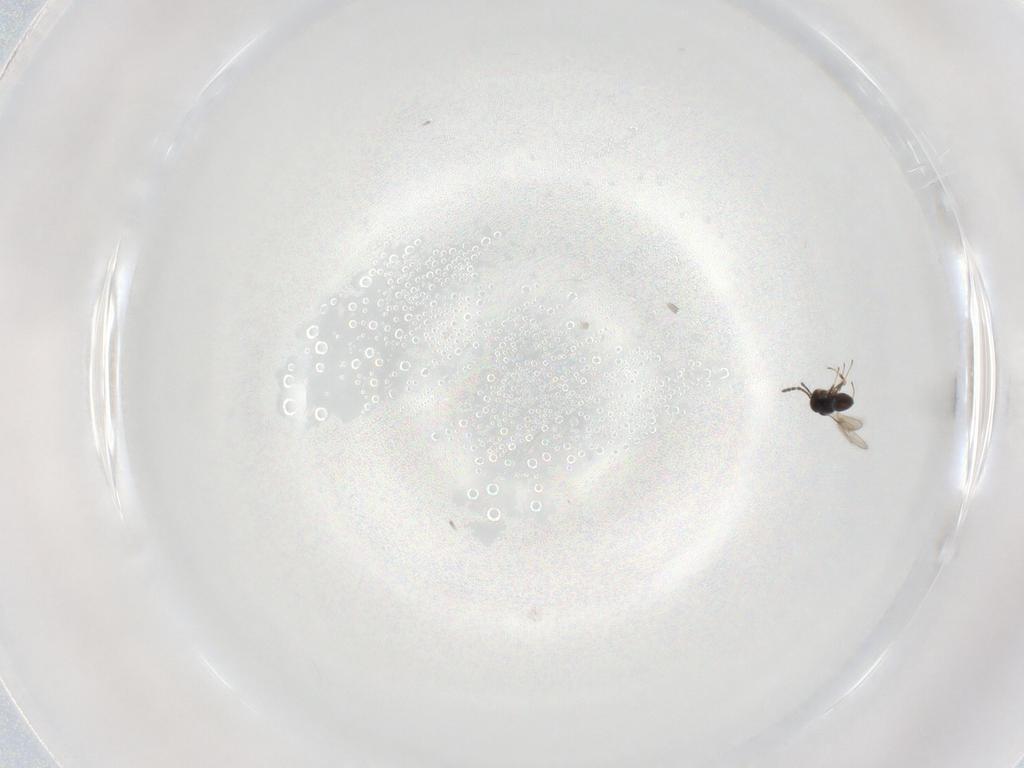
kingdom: Animalia
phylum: Arthropoda
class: Insecta
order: Hymenoptera
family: Scelionidae
